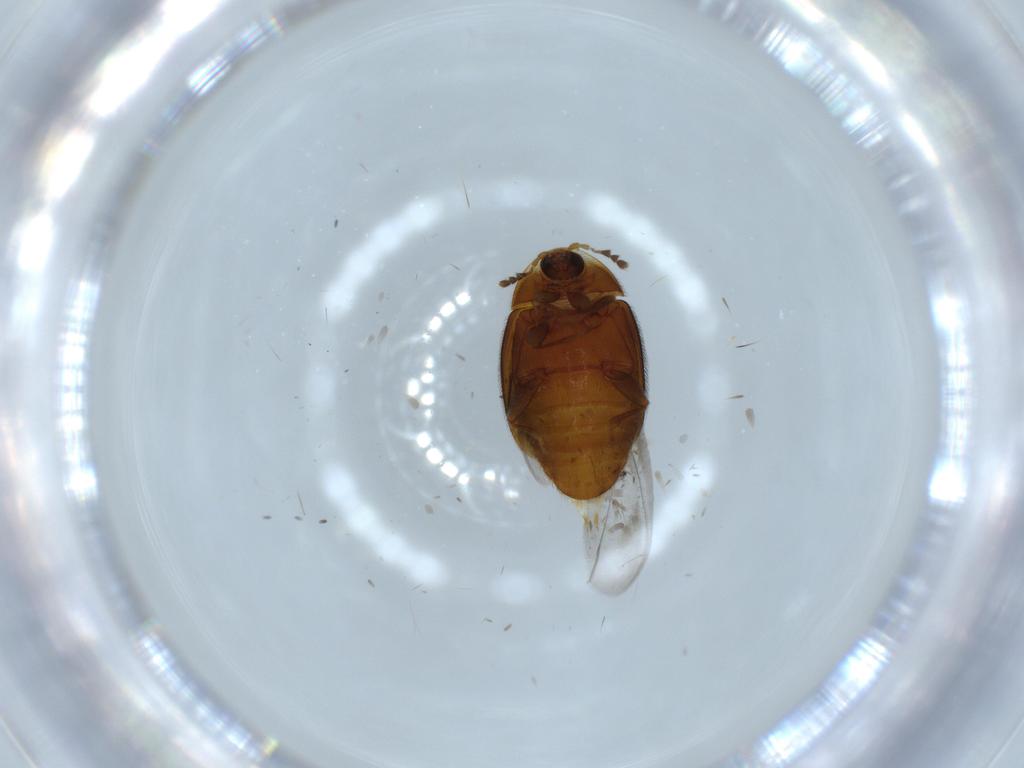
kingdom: Animalia
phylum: Arthropoda
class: Insecta
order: Coleoptera
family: Corylophidae
